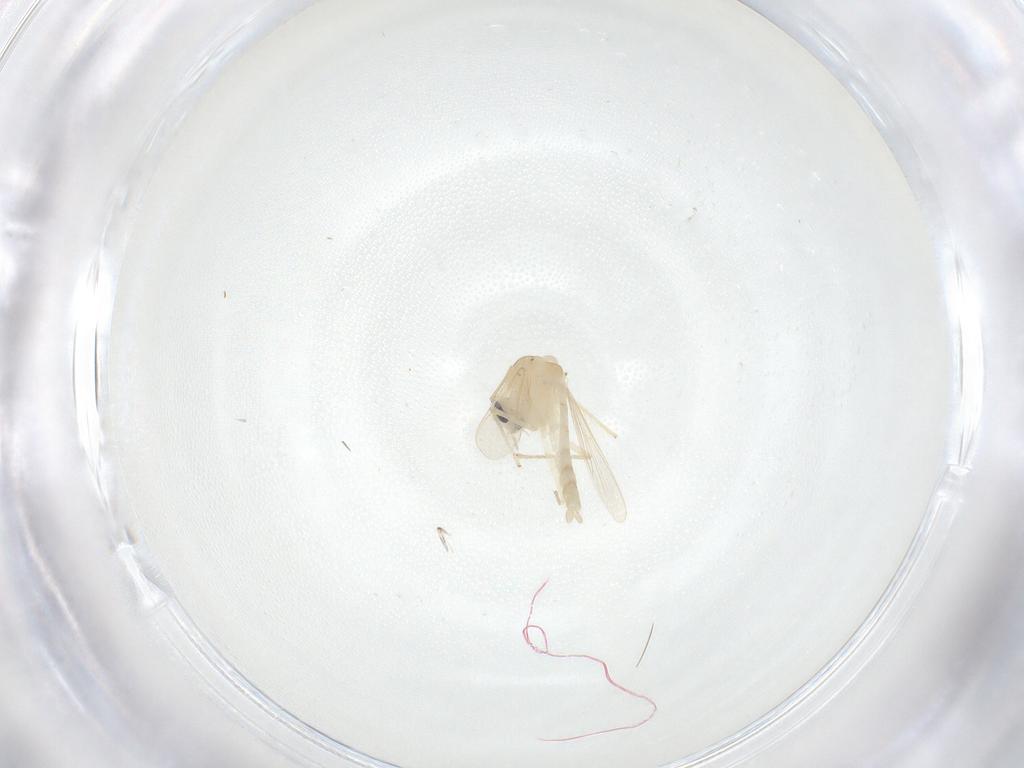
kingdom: Animalia
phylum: Arthropoda
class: Insecta
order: Diptera
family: Chironomidae
